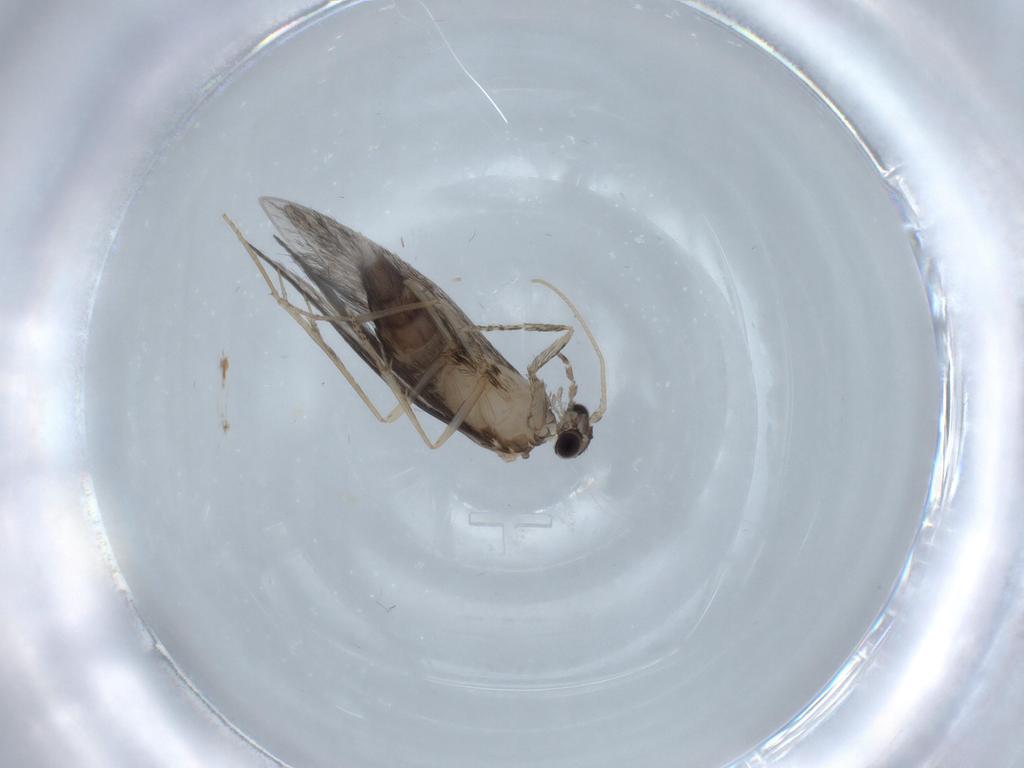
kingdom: Animalia
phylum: Arthropoda
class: Insecta
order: Trichoptera
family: Hydroptilidae
